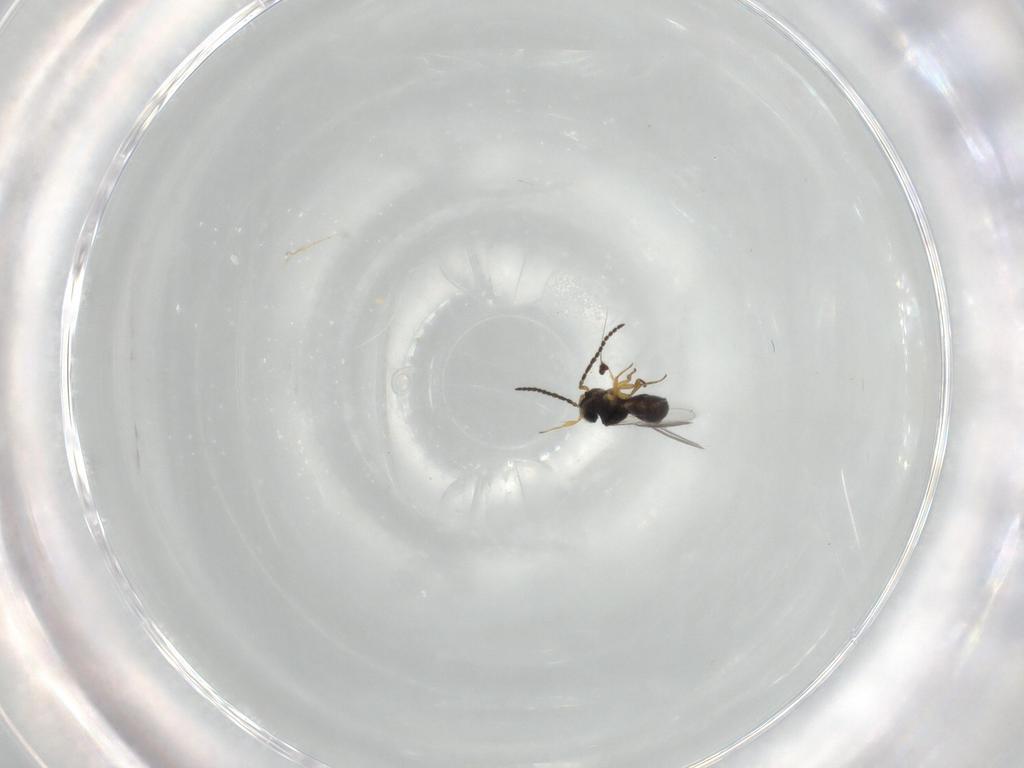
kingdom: Animalia
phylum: Arthropoda
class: Insecta
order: Hymenoptera
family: Scelionidae
